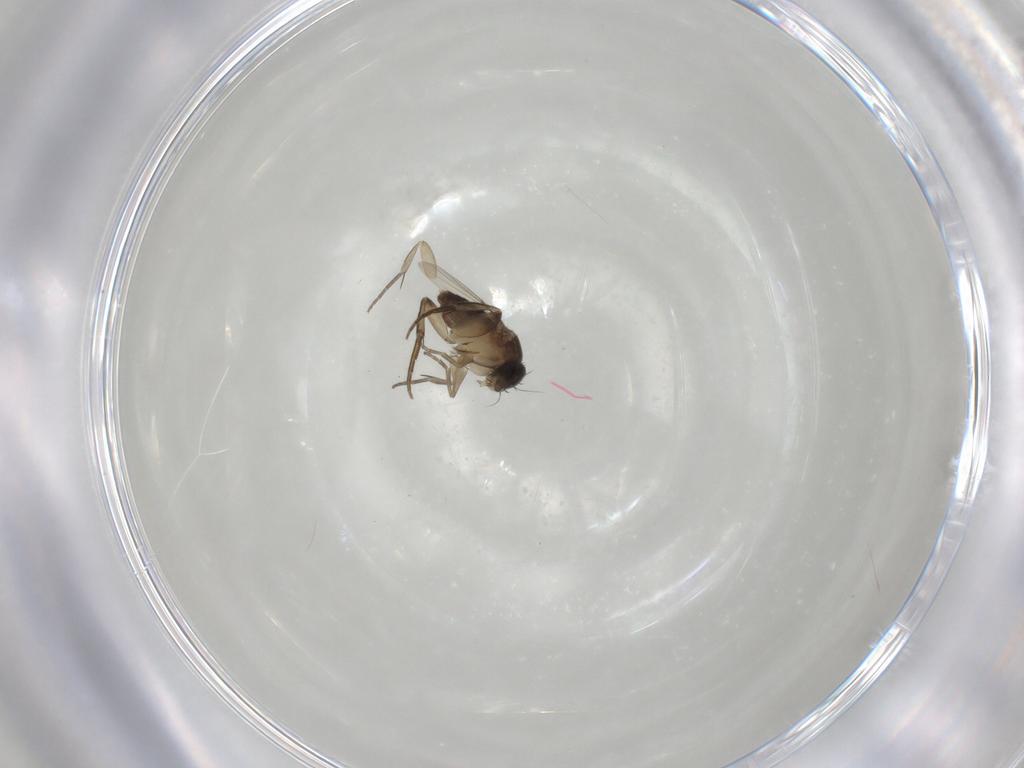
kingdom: Animalia
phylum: Arthropoda
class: Insecta
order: Diptera
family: Phoridae
